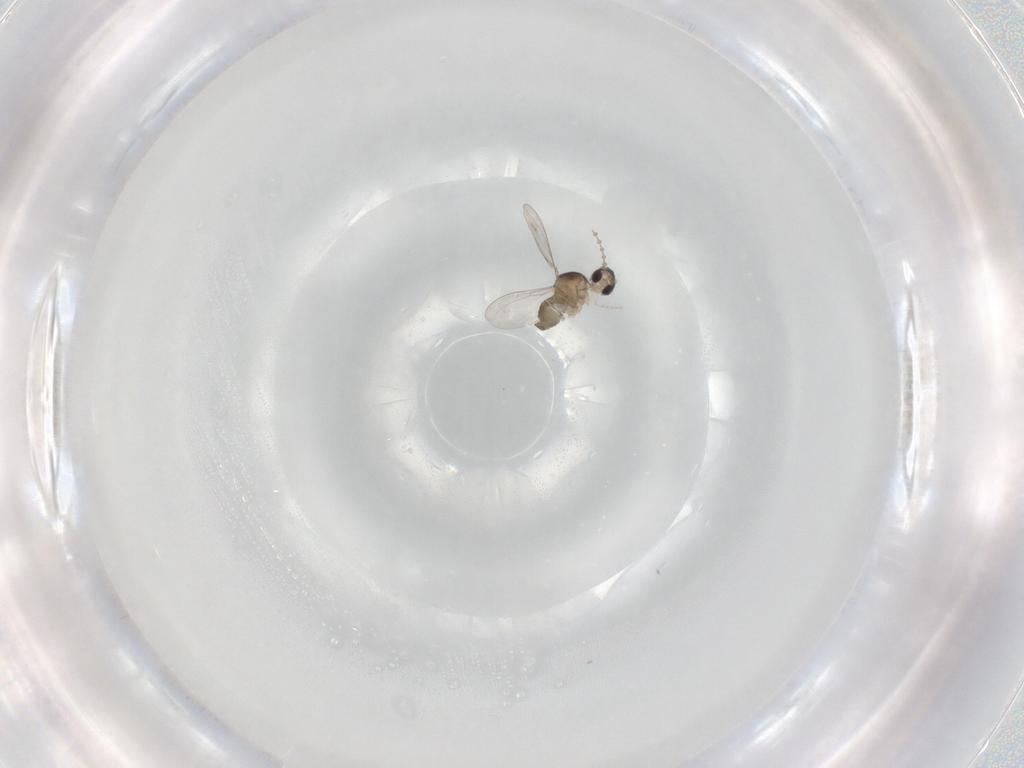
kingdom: Animalia
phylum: Arthropoda
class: Insecta
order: Diptera
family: Cecidomyiidae
